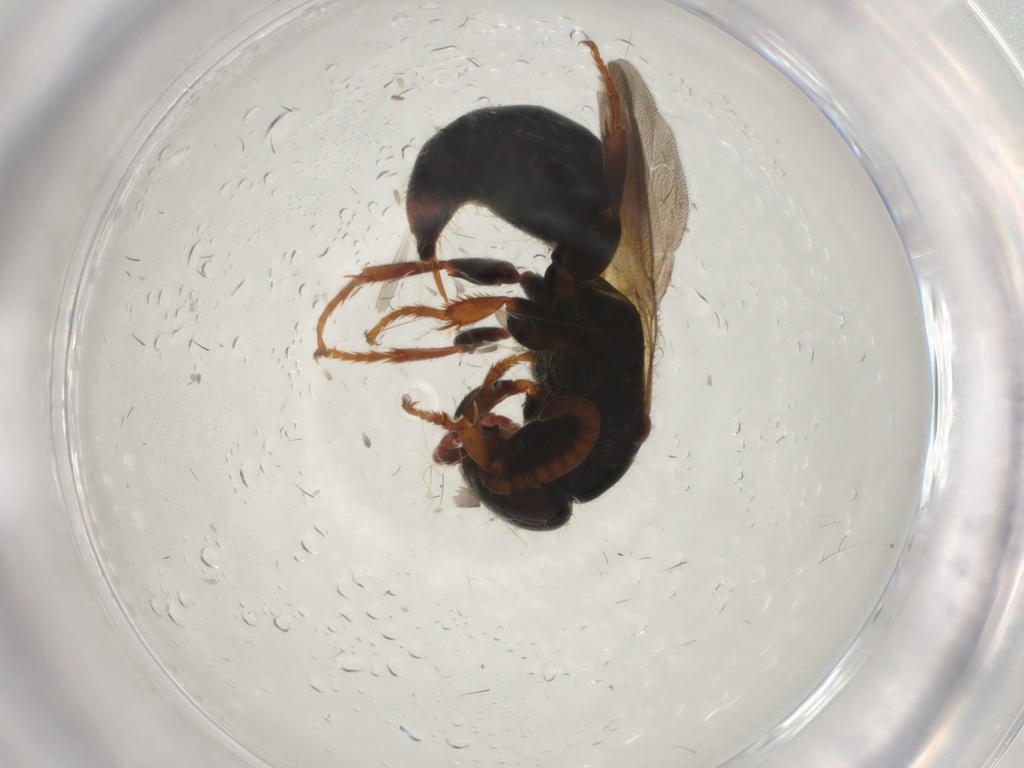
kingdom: Animalia
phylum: Arthropoda
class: Insecta
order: Hymenoptera
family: Bethylidae
